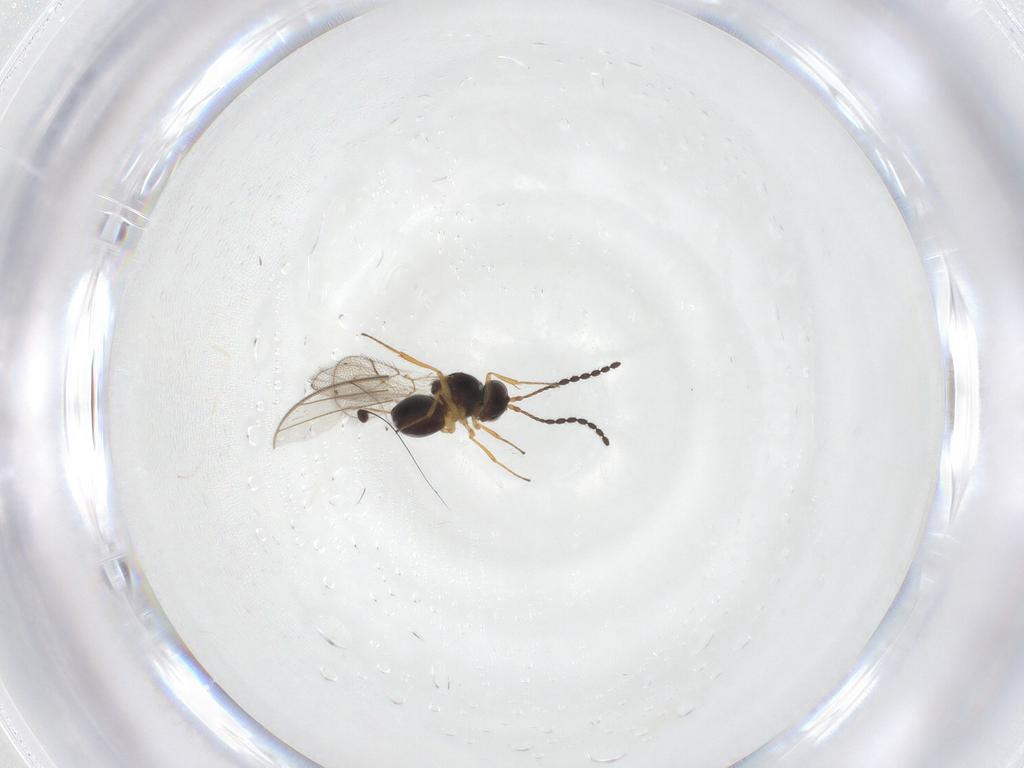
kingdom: Animalia
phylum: Arthropoda
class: Insecta
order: Hymenoptera
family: Figitidae
